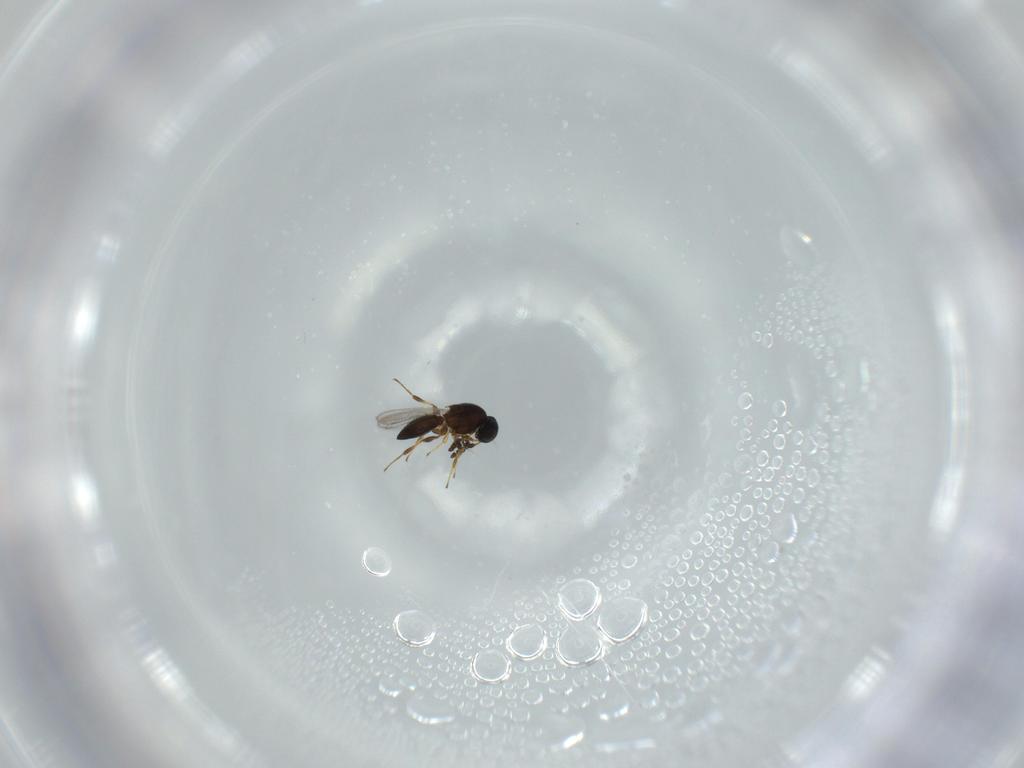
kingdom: Animalia
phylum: Arthropoda
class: Insecta
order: Hymenoptera
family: Platygastridae
